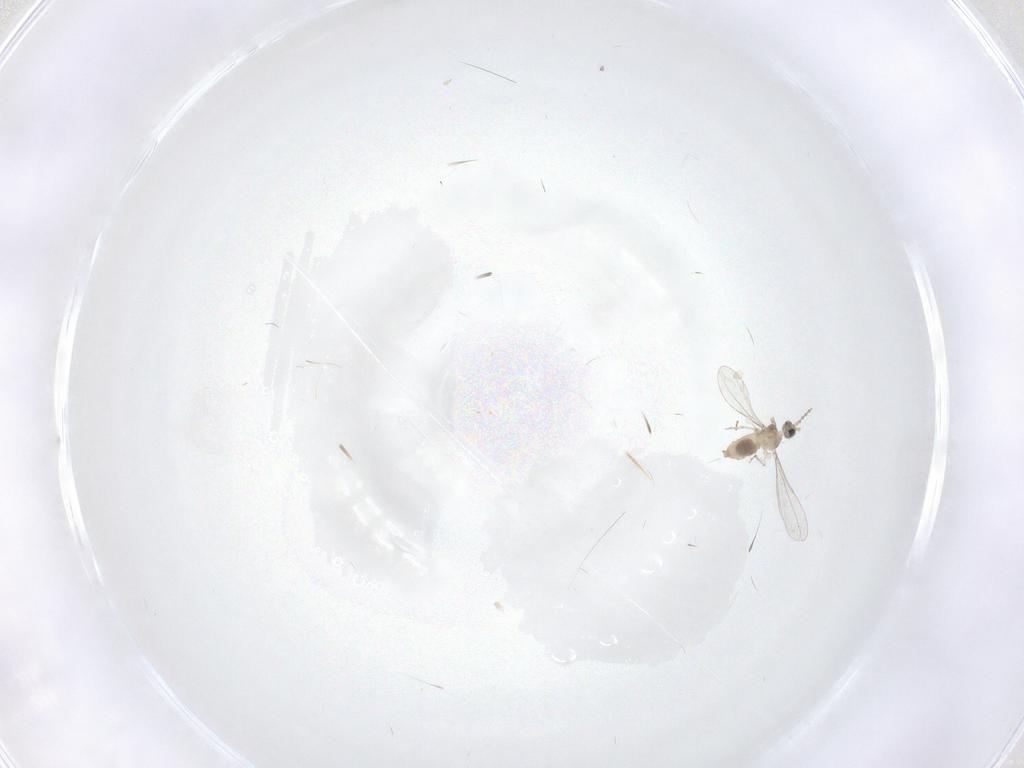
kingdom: Animalia
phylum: Arthropoda
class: Insecta
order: Diptera
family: Cecidomyiidae
